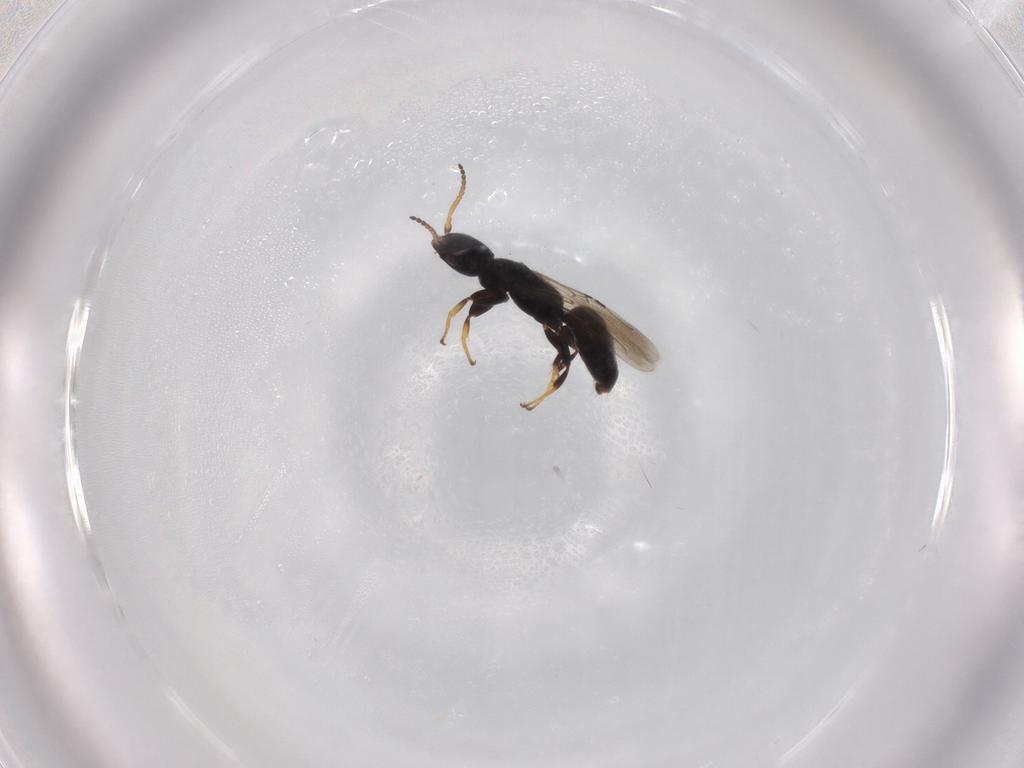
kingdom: Animalia
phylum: Arthropoda
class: Insecta
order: Hymenoptera
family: Bethylidae
